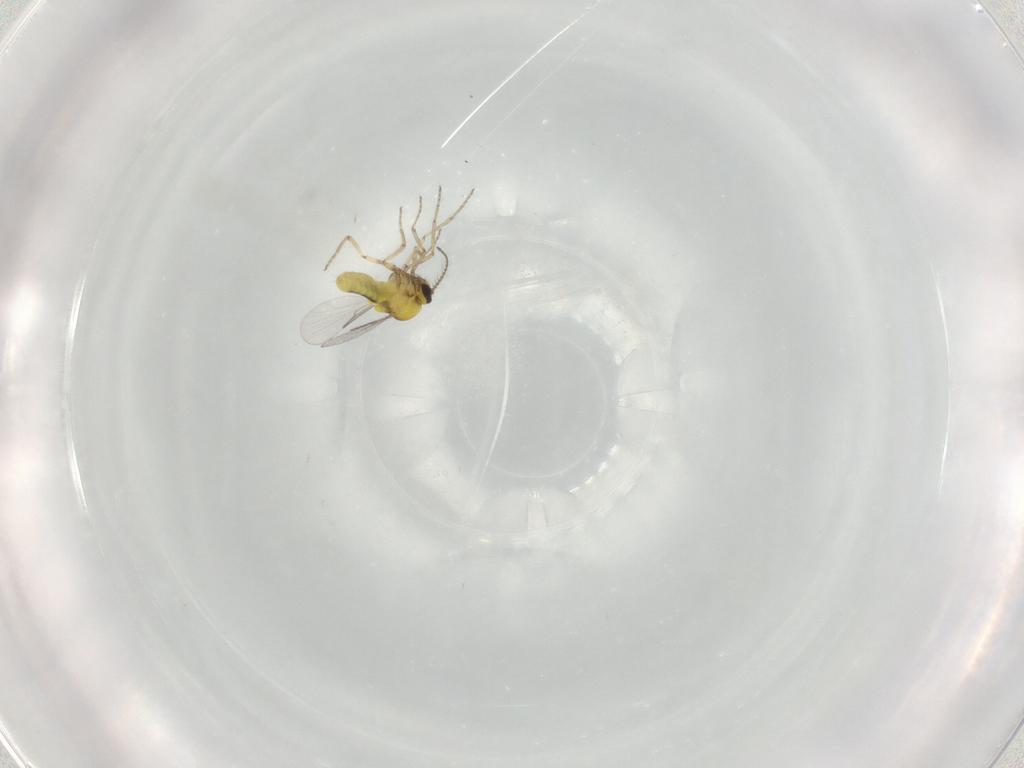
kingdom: Animalia
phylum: Arthropoda
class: Insecta
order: Diptera
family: Ceratopogonidae
